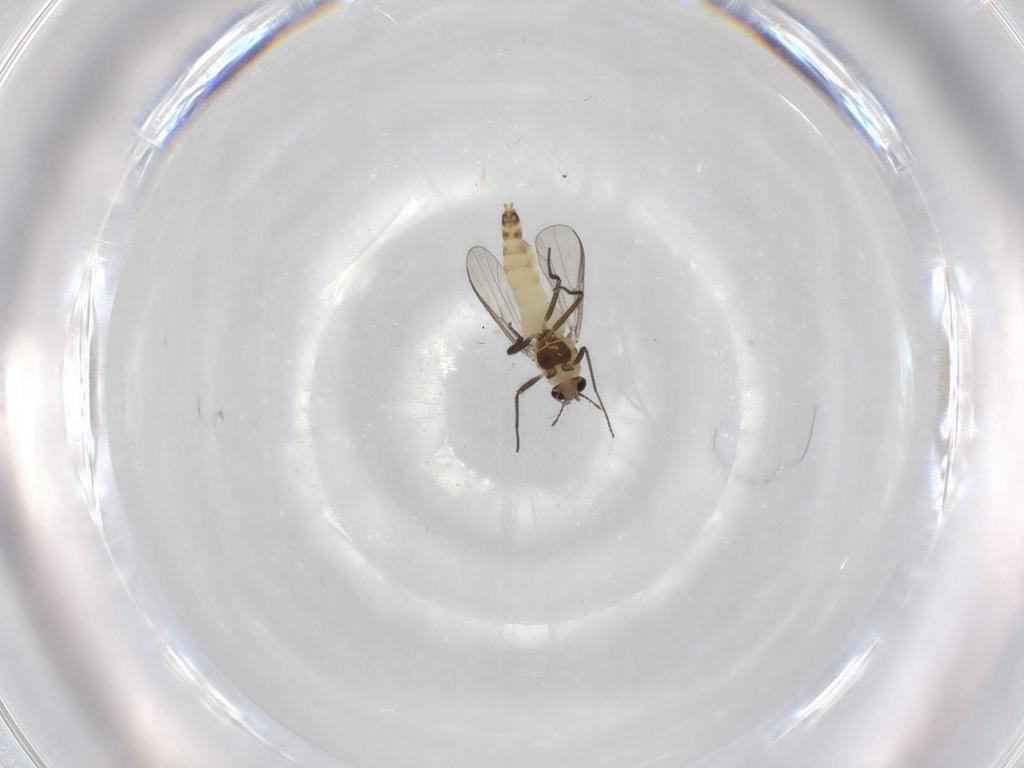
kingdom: Animalia
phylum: Arthropoda
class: Insecta
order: Diptera
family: Chironomidae
